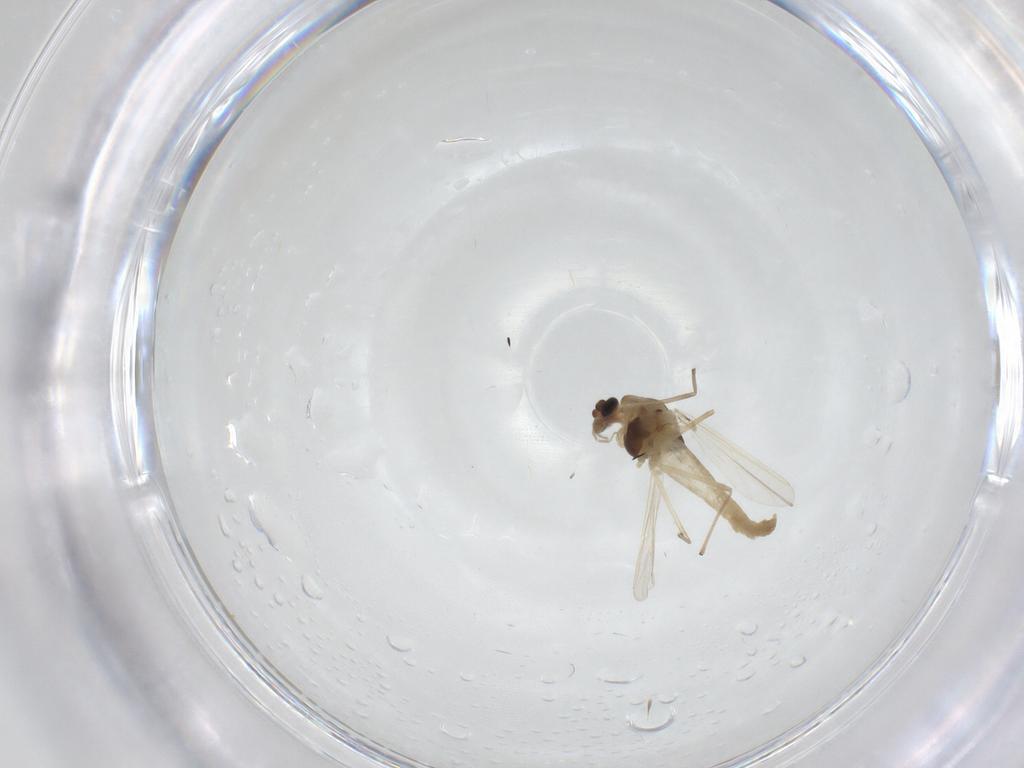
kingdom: Animalia
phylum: Arthropoda
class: Insecta
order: Diptera
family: Chironomidae
